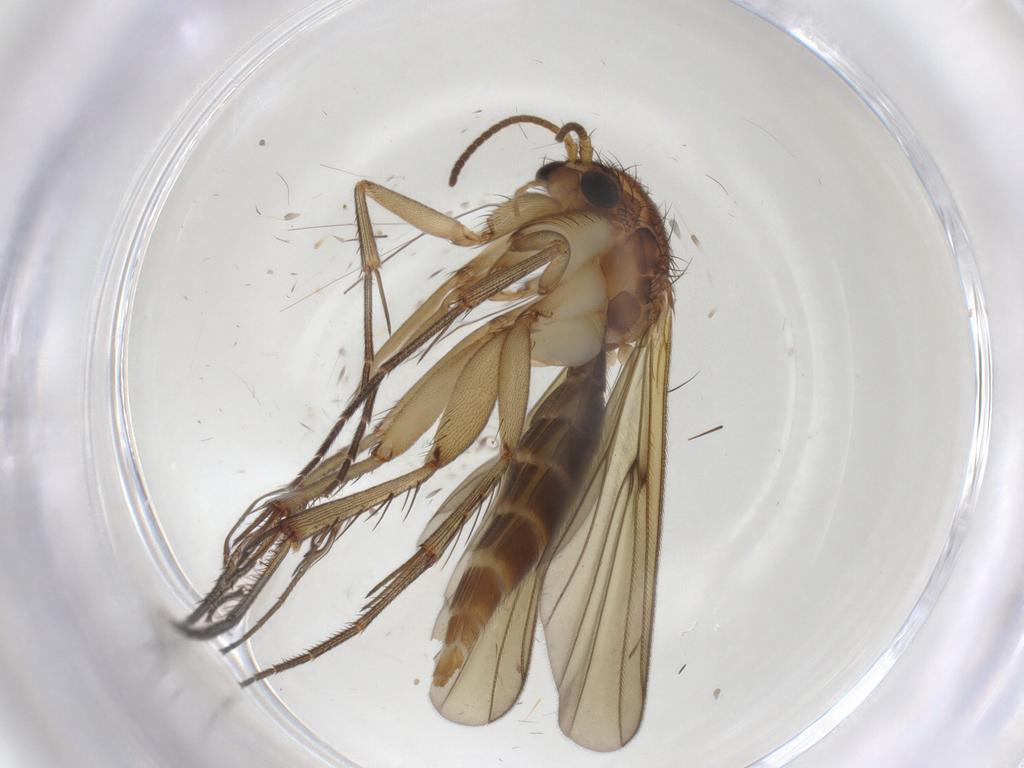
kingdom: Animalia
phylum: Arthropoda
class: Insecta
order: Diptera
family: Mycetophilidae
